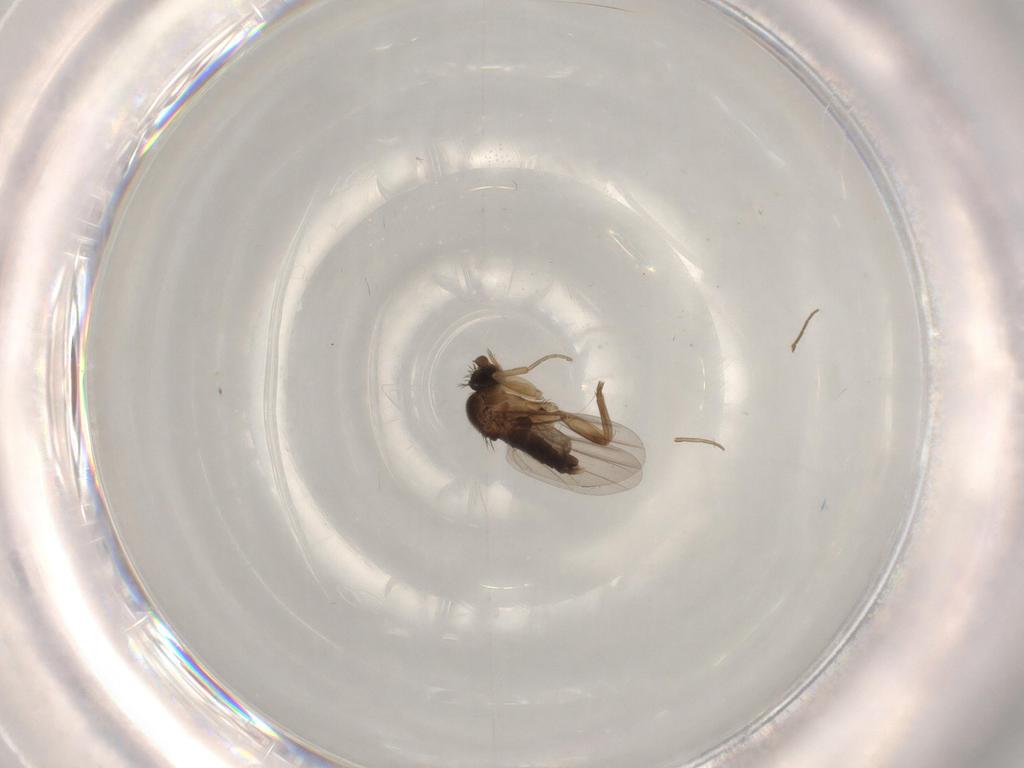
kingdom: Animalia
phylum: Arthropoda
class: Insecta
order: Diptera
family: Phoridae
